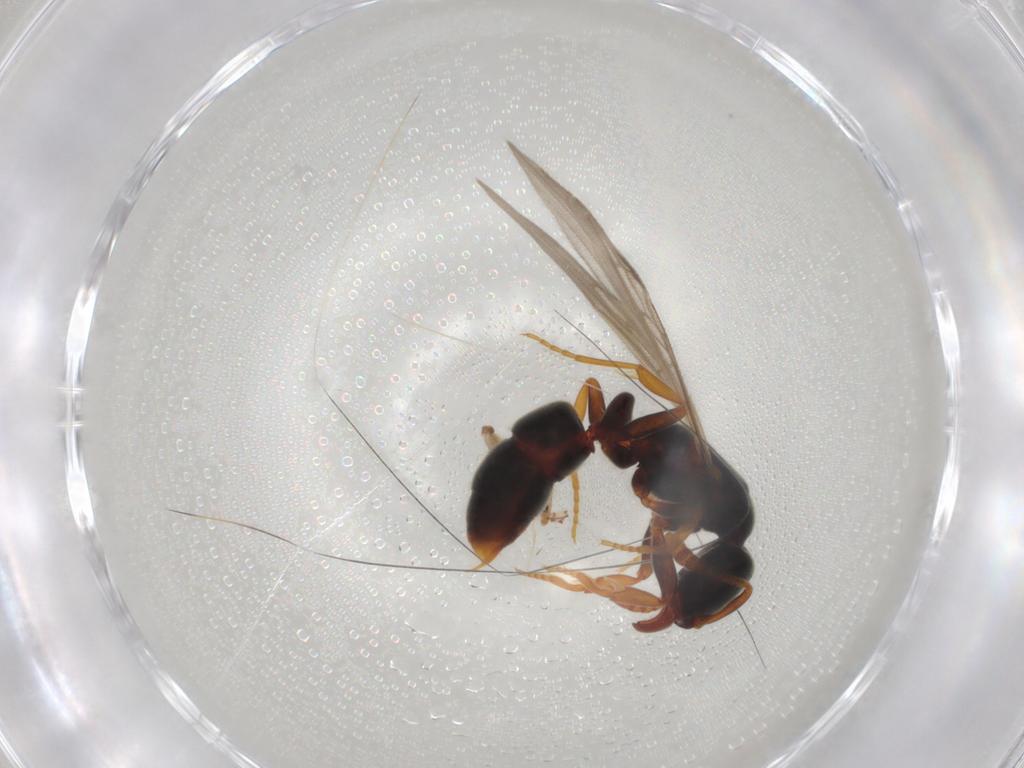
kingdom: Animalia
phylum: Arthropoda
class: Insecta
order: Hymenoptera
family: Formicidae
